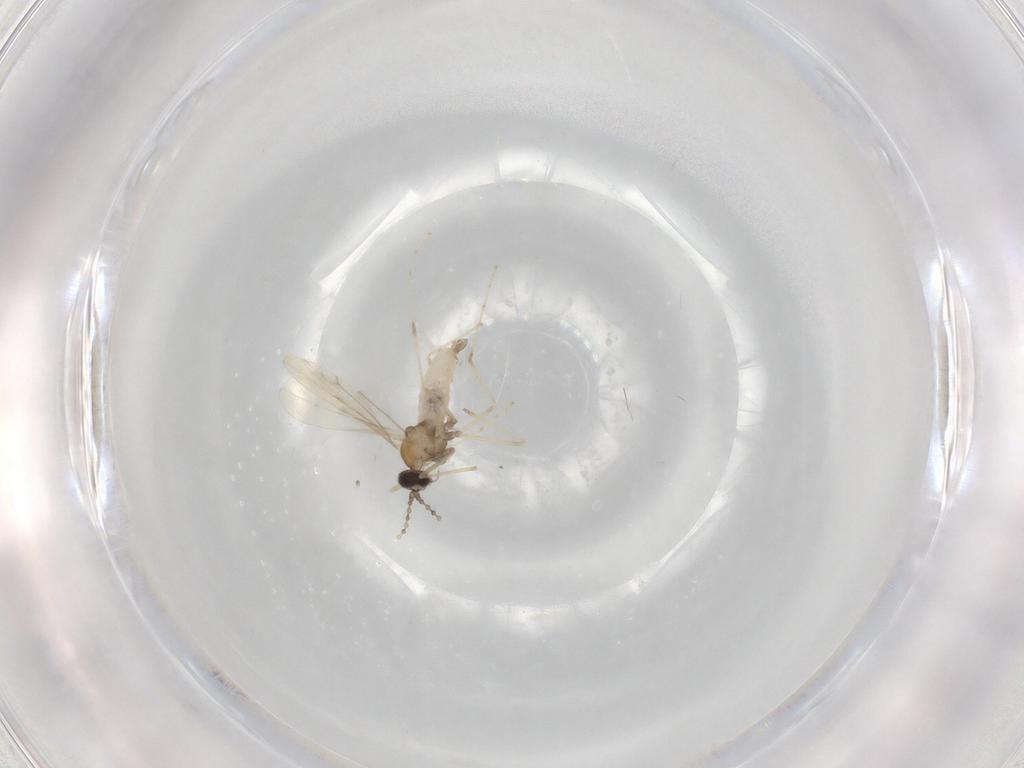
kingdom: Animalia
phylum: Arthropoda
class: Insecta
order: Diptera
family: Cecidomyiidae
